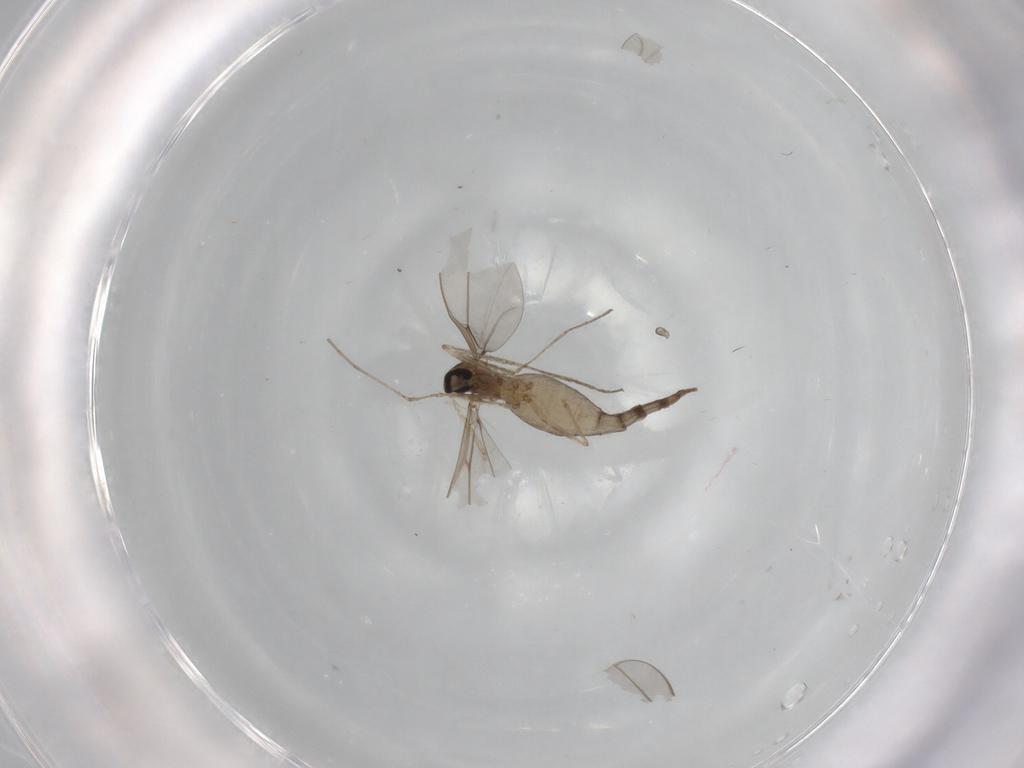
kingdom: Animalia
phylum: Arthropoda
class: Insecta
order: Diptera
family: Cecidomyiidae
